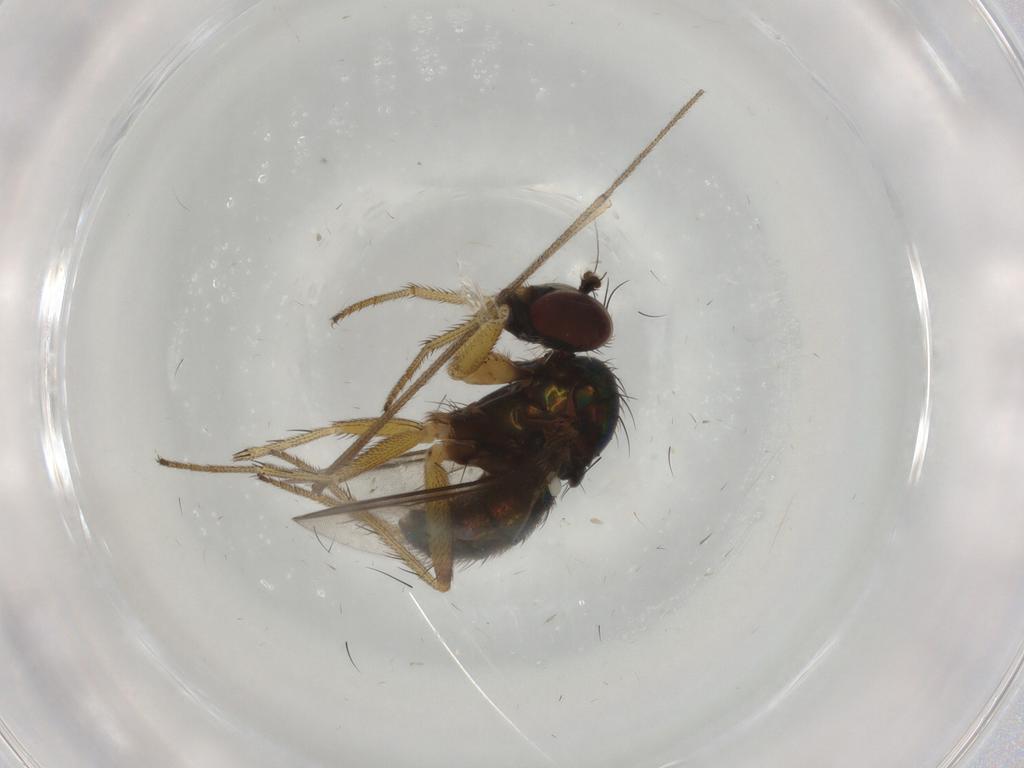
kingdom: Animalia
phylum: Arthropoda
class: Insecta
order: Diptera
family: Dolichopodidae
